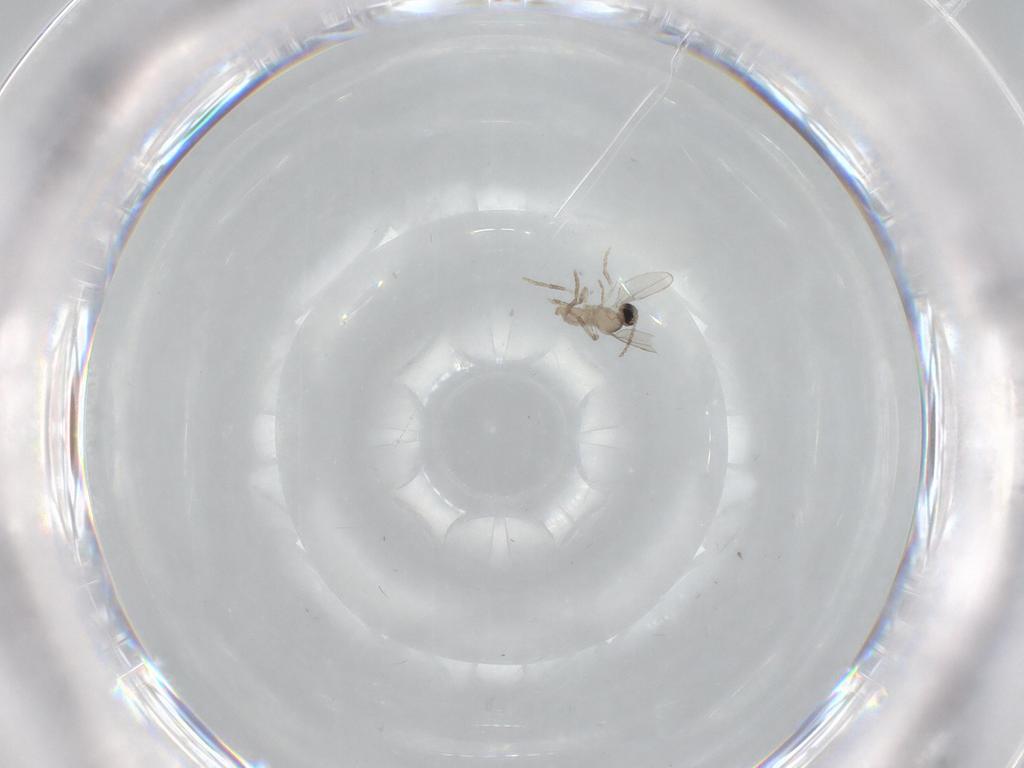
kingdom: Animalia
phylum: Arthropoda
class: Insecta
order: Diptera
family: Cecidomyiidae
